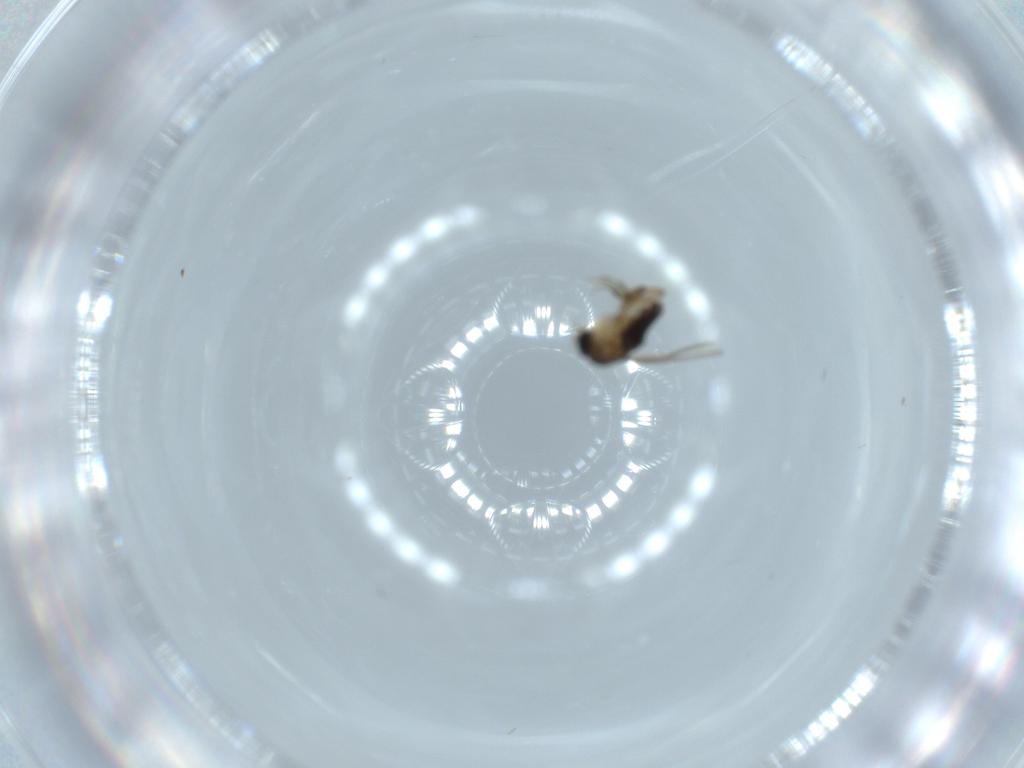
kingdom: Animalia
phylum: Arthropoda
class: Insecta
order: Diptera
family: Phoridae
